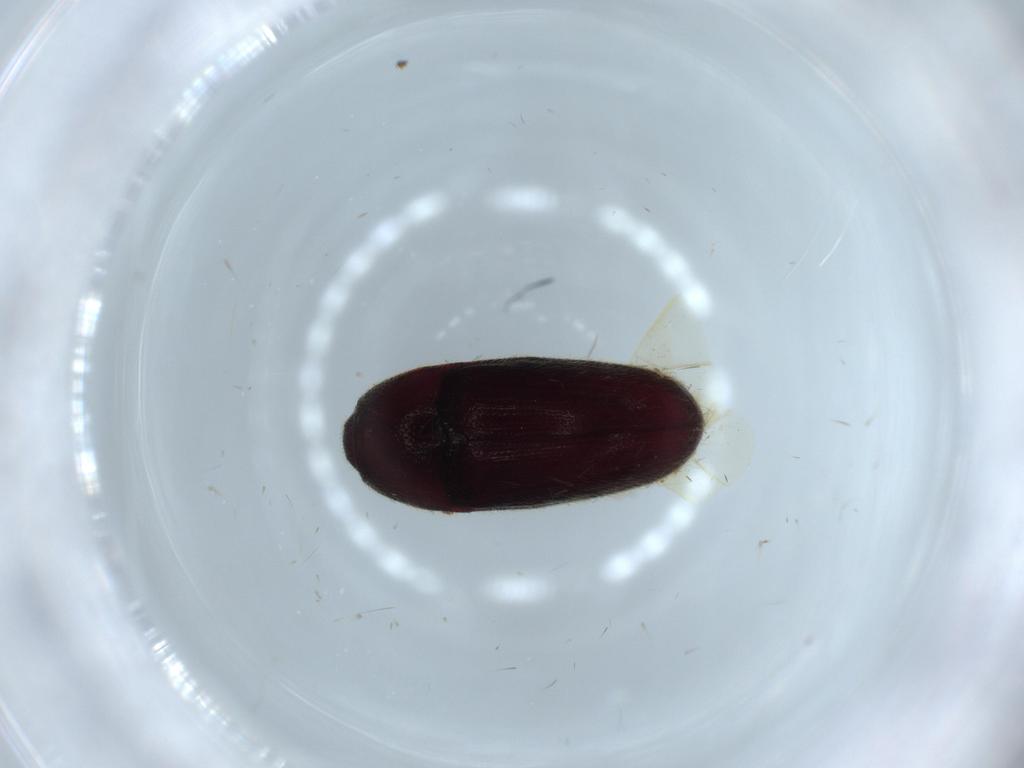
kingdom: Animalia
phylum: Arthropoda
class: Insecta
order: Coleoptera
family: Throscidae
